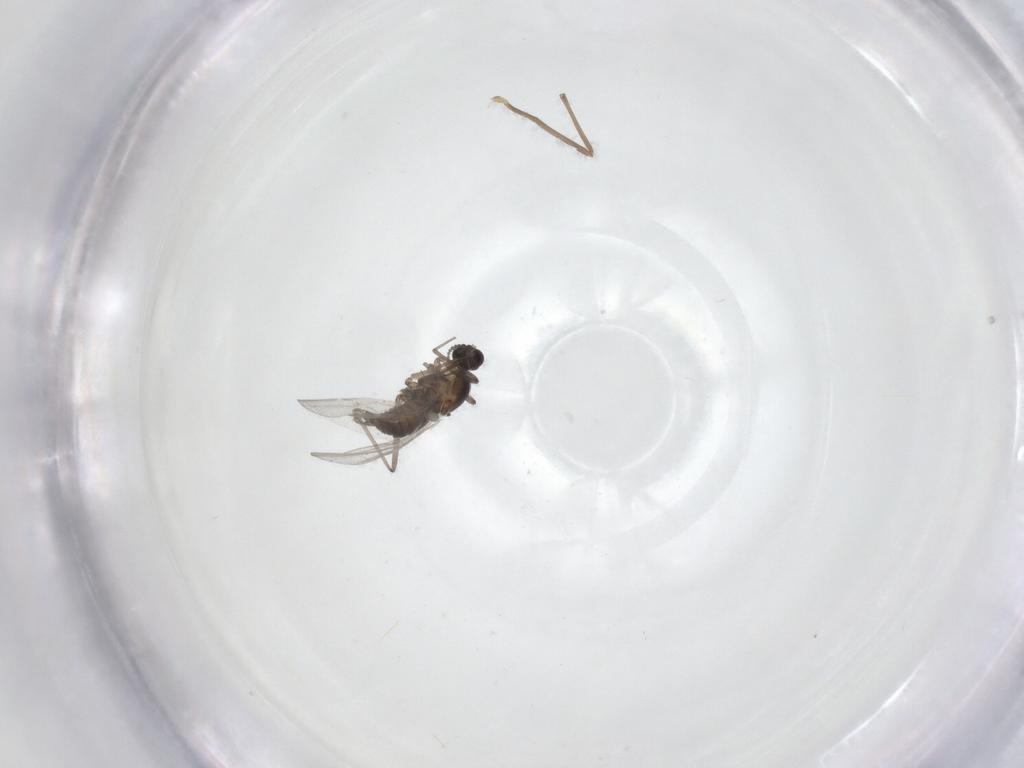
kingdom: Animalia
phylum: Arthropoda
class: Insecta
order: Diptera
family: Cecidomyiidae
